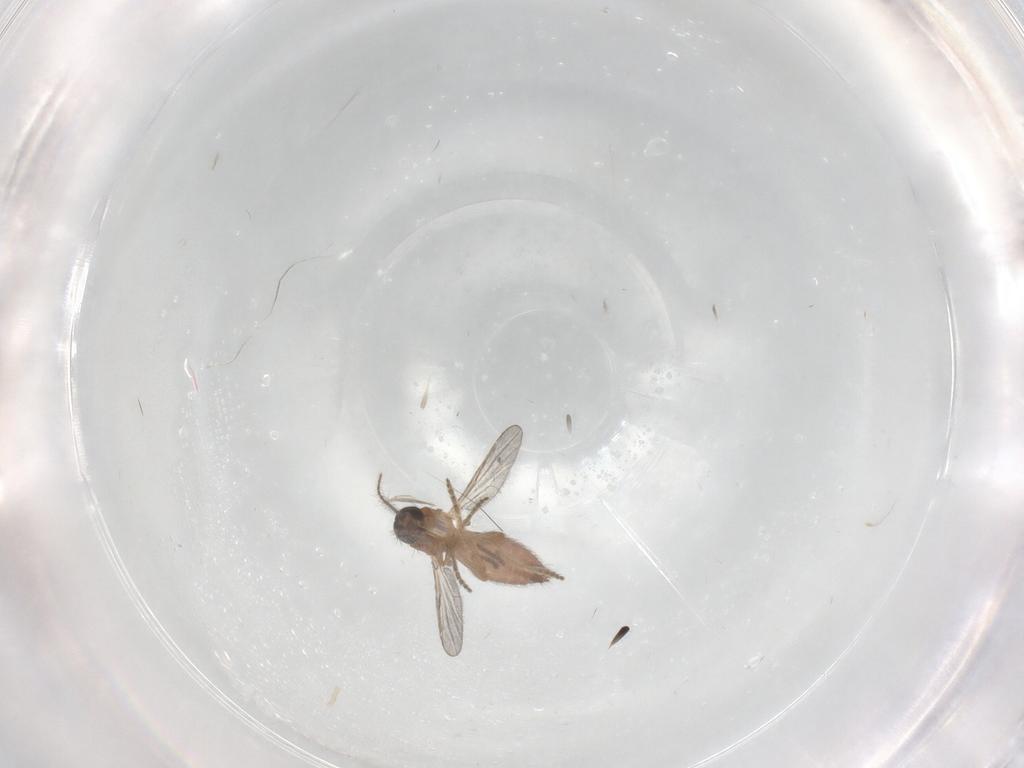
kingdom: Animalia
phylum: Arthropoda
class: Insecta
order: Diptera
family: Ceratopogonidae
